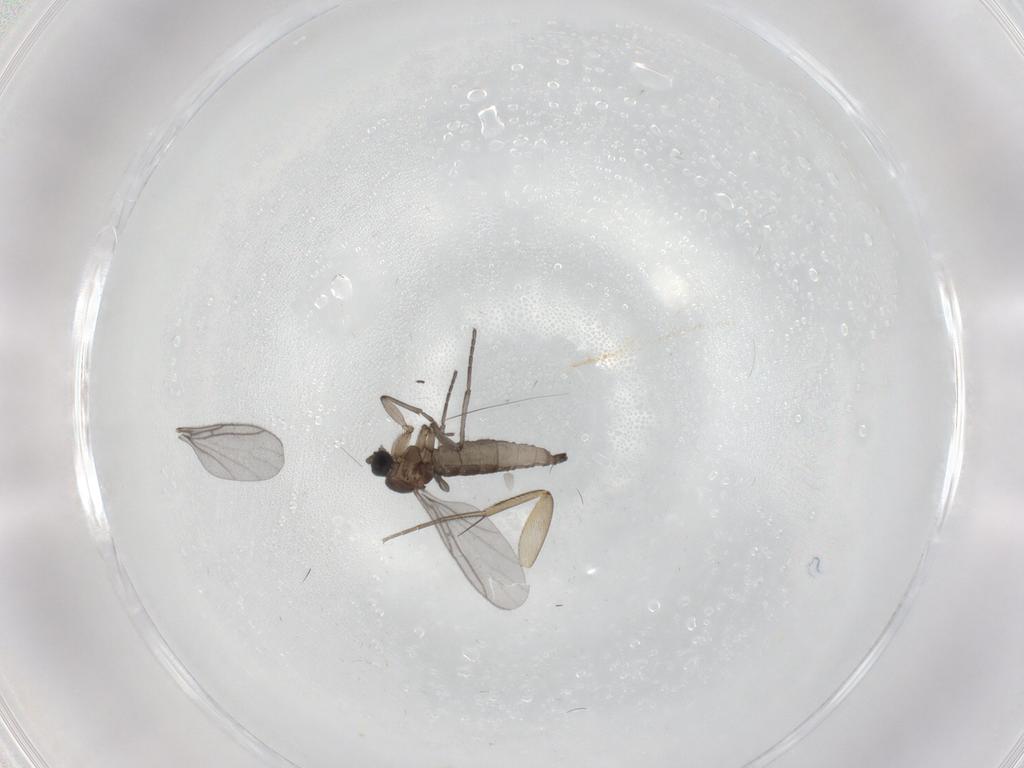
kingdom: Animalia
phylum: Arthropoda
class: Insecta
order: Diptera
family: Sciaridae
